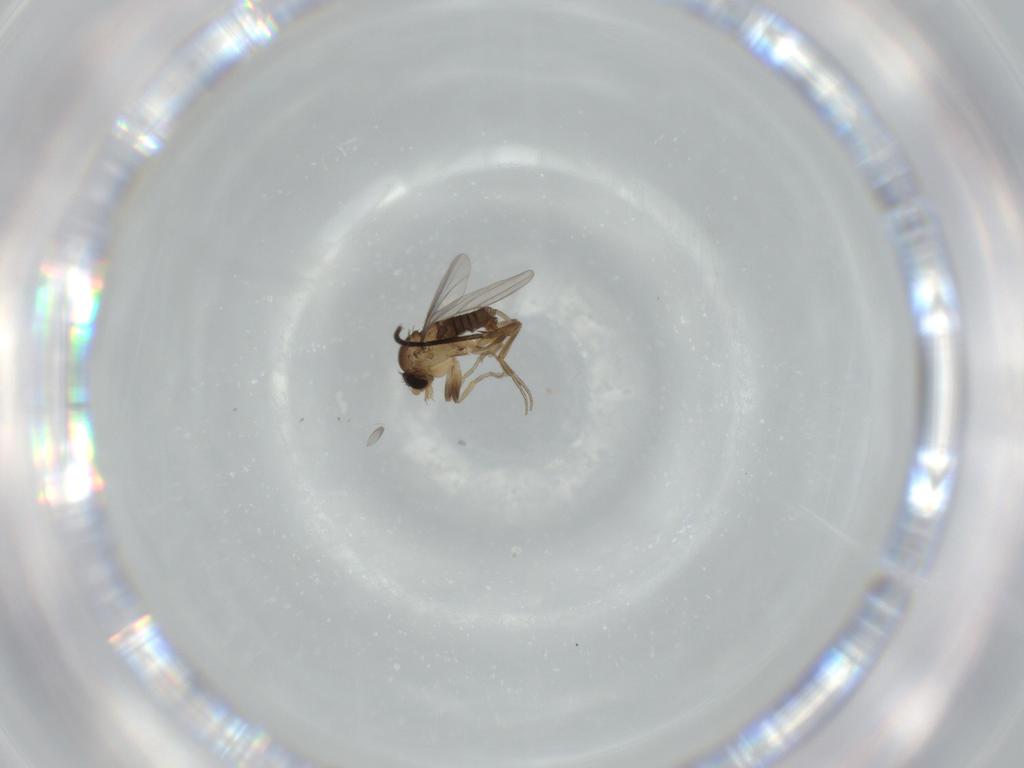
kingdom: Animalia
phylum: Arthropoda
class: Insecta
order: Diptera
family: Phoridae
